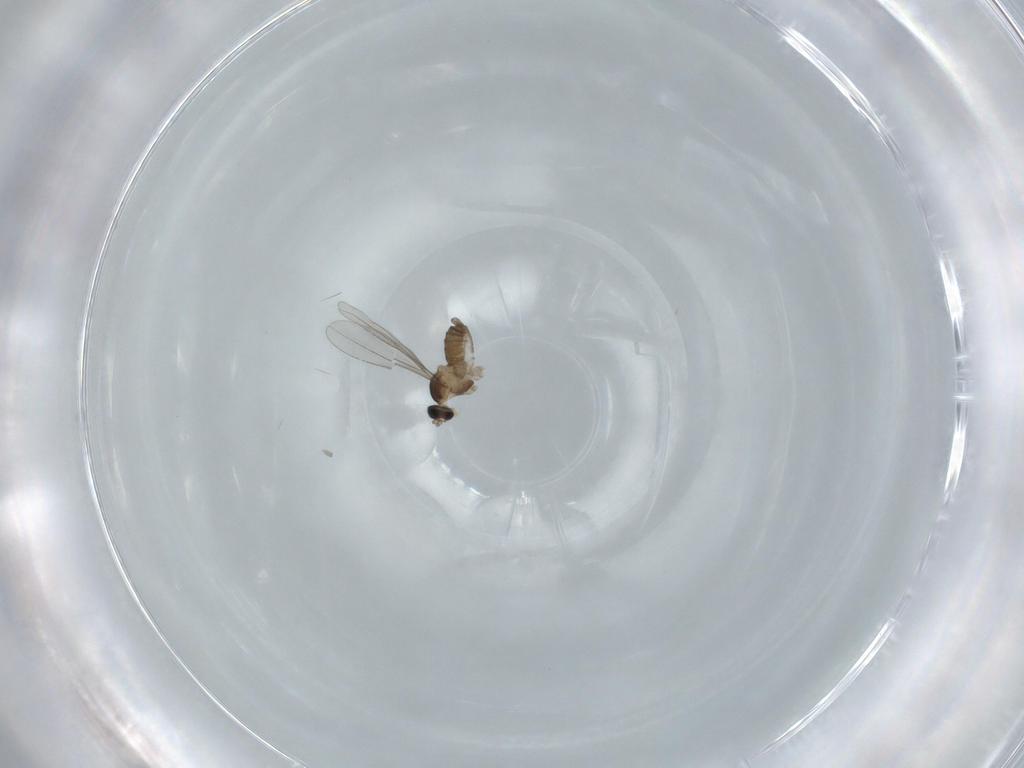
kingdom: Animalia
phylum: Arthropoda
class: Insecta
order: Diptera
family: Cecidomyiidae
